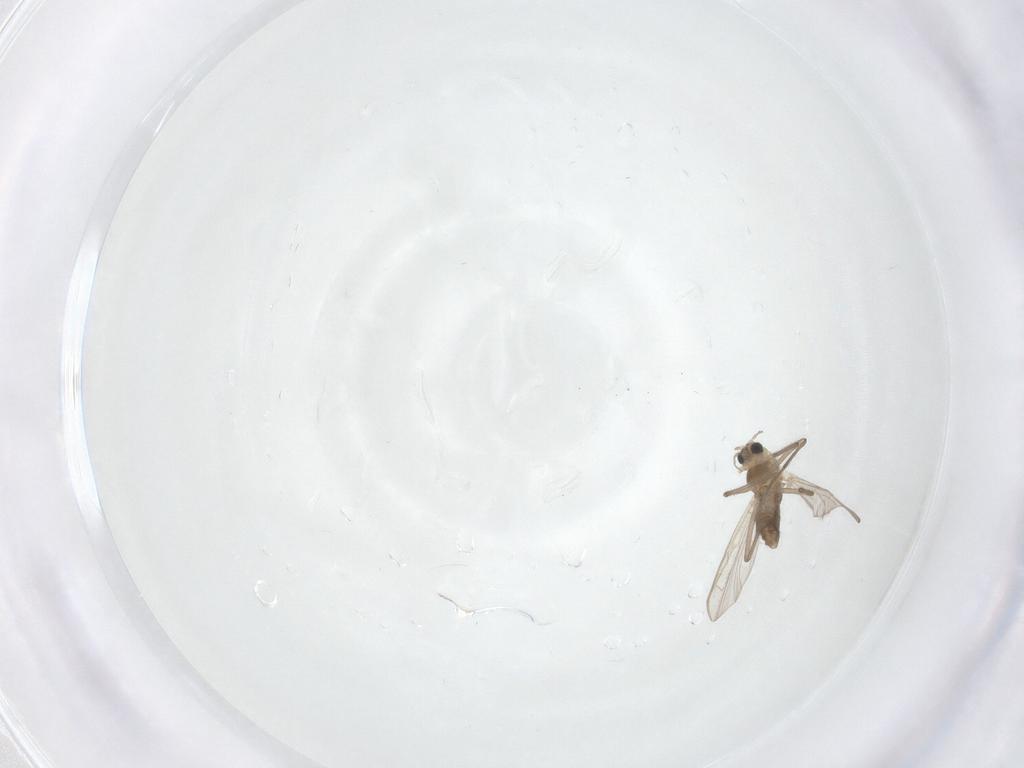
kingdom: Animalia
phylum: Arthropoda
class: Insecta
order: Diptera
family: Chironomidae
